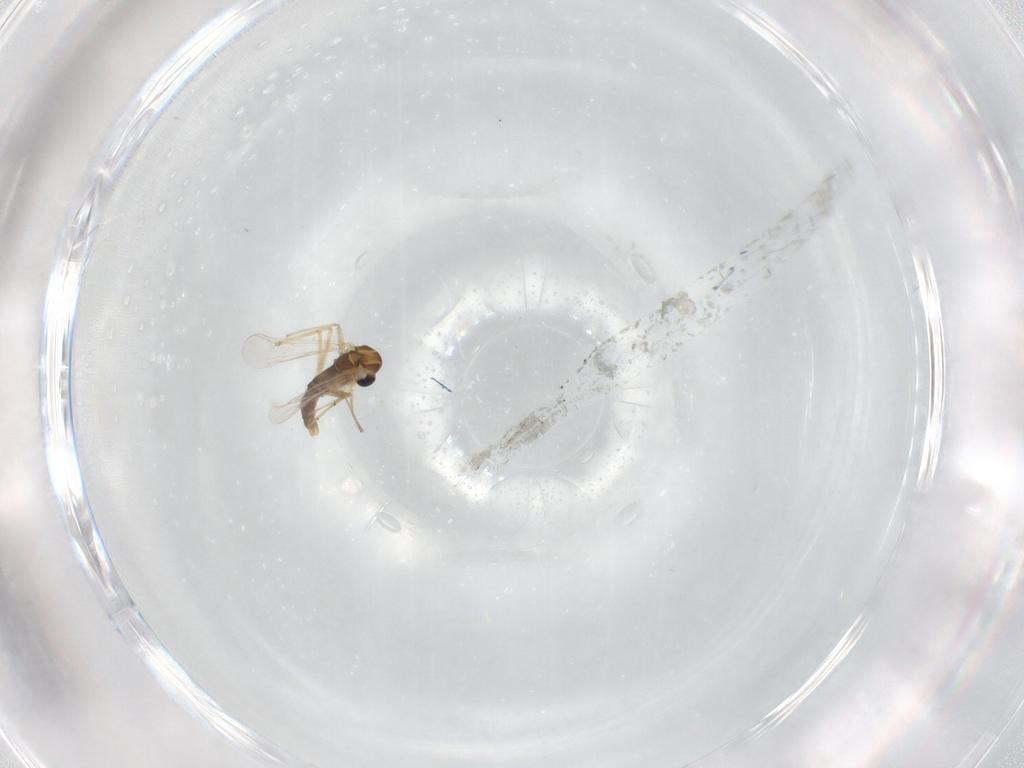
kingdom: Animalia
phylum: Arthropoda
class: Insecta
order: Diptera
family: Chironomidae
